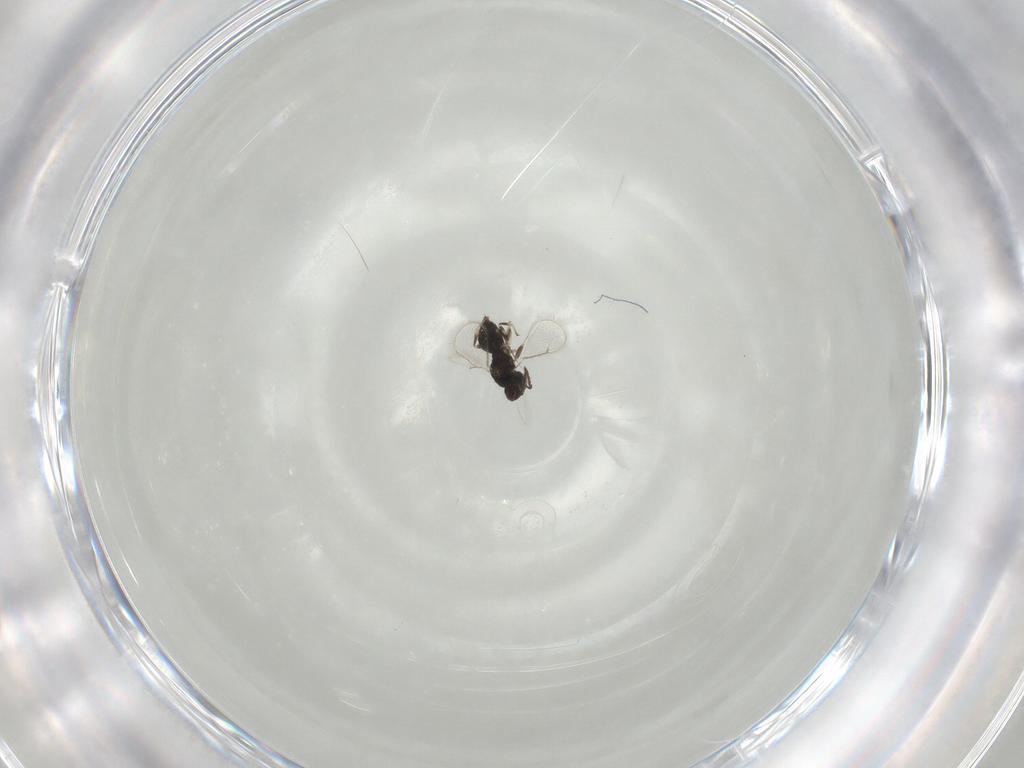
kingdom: Animalia
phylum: Arthropoda
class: Insecta
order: Hymenoptera
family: Eulophidae
